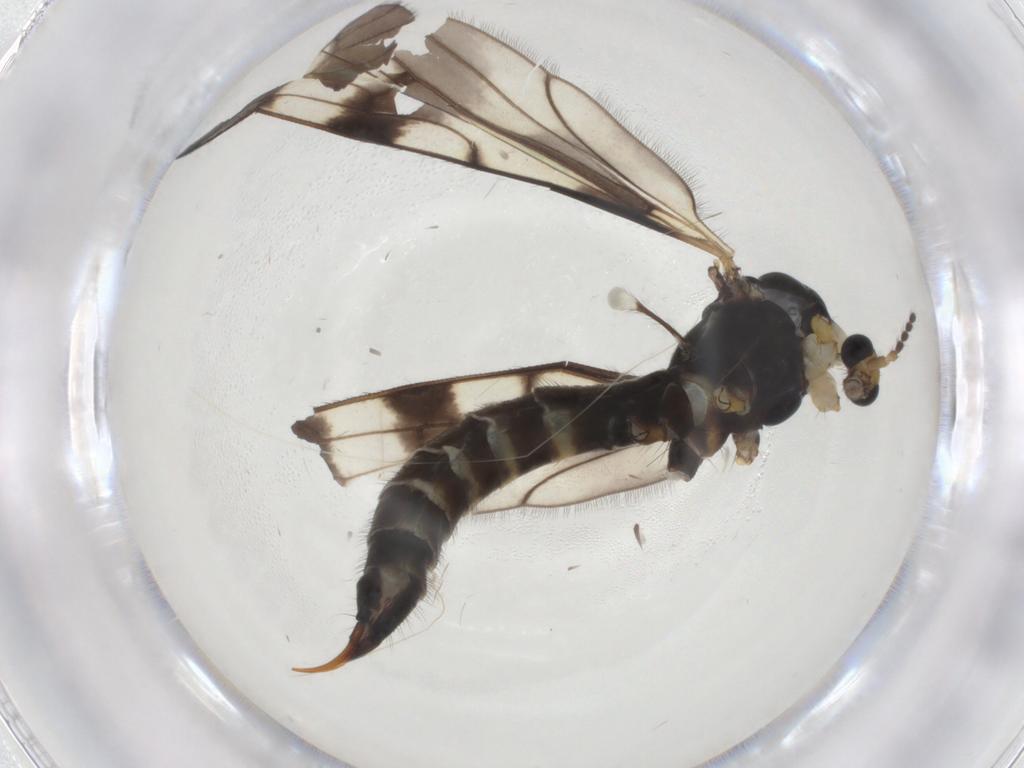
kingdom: Animalia
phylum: Arthropoda
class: Insecta
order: Diptera
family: Limoniidae
